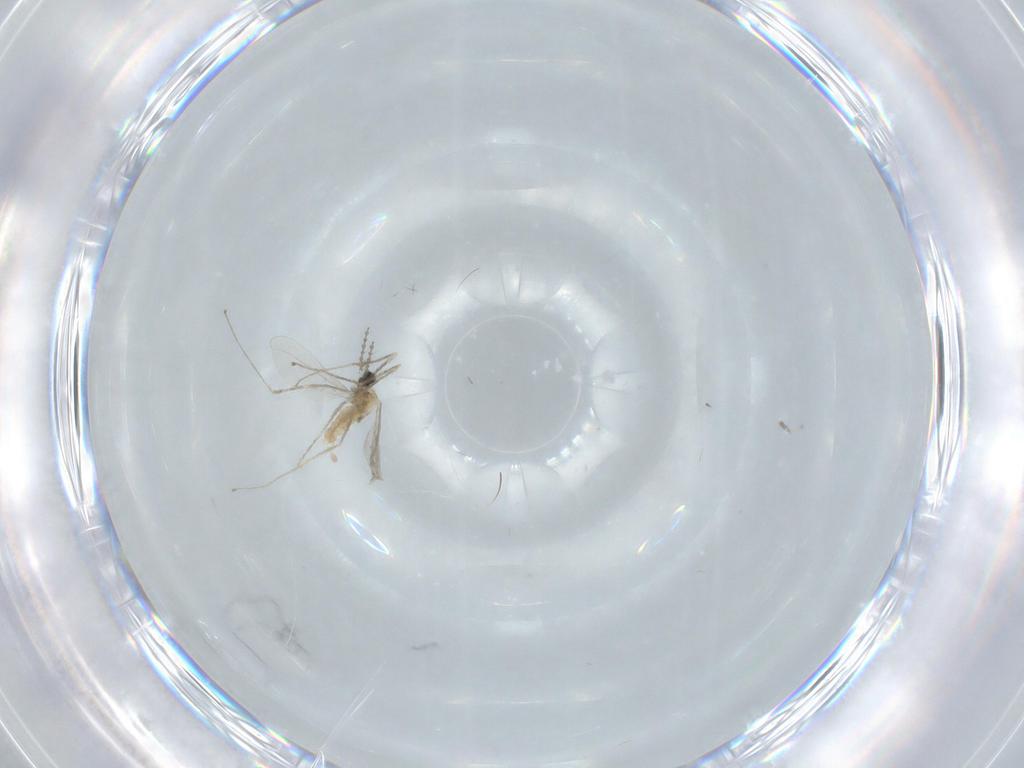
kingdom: Animalia
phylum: Arthropoda
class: Insecta
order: Diptera
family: Cecidomyiidae
